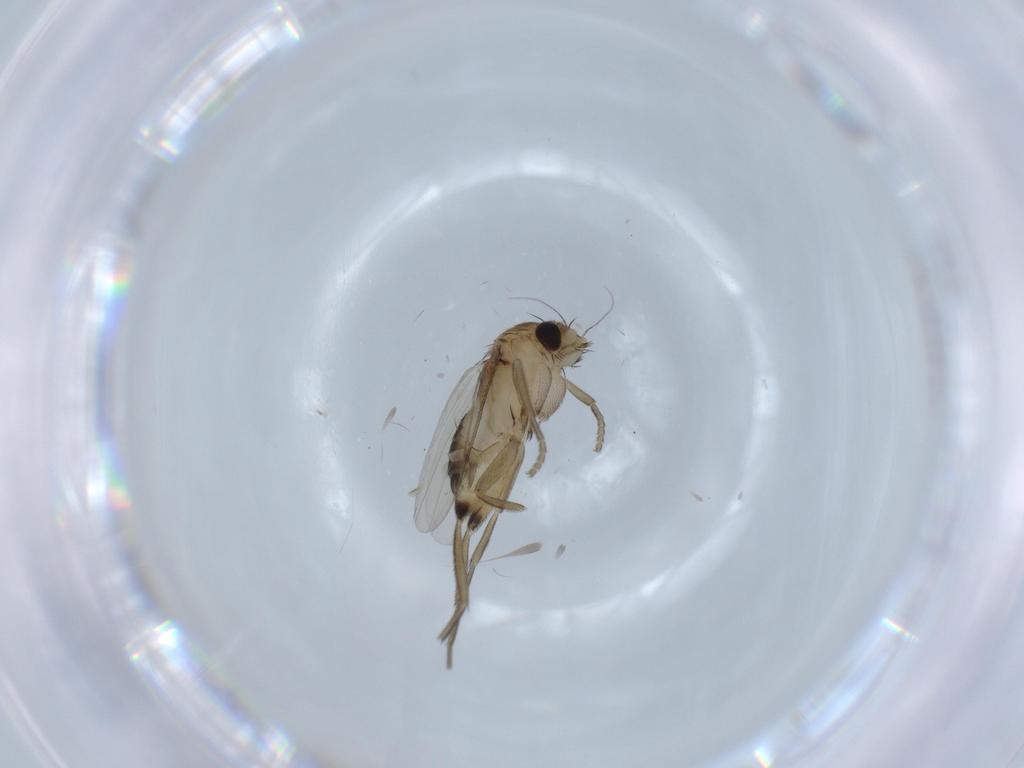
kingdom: Animalia
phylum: Arthropoda
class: Insecta
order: Diptera
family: Phoridae
